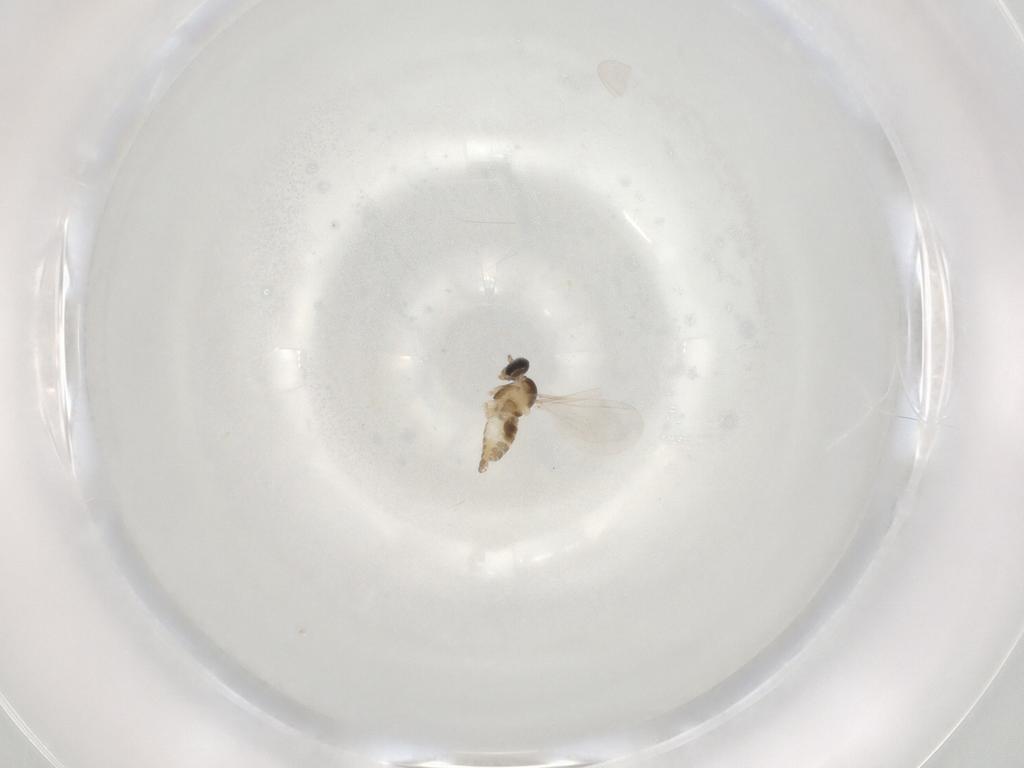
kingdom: Animalia
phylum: Arthropoda
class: Insecta
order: Diptera
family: Cecidomyiidae
